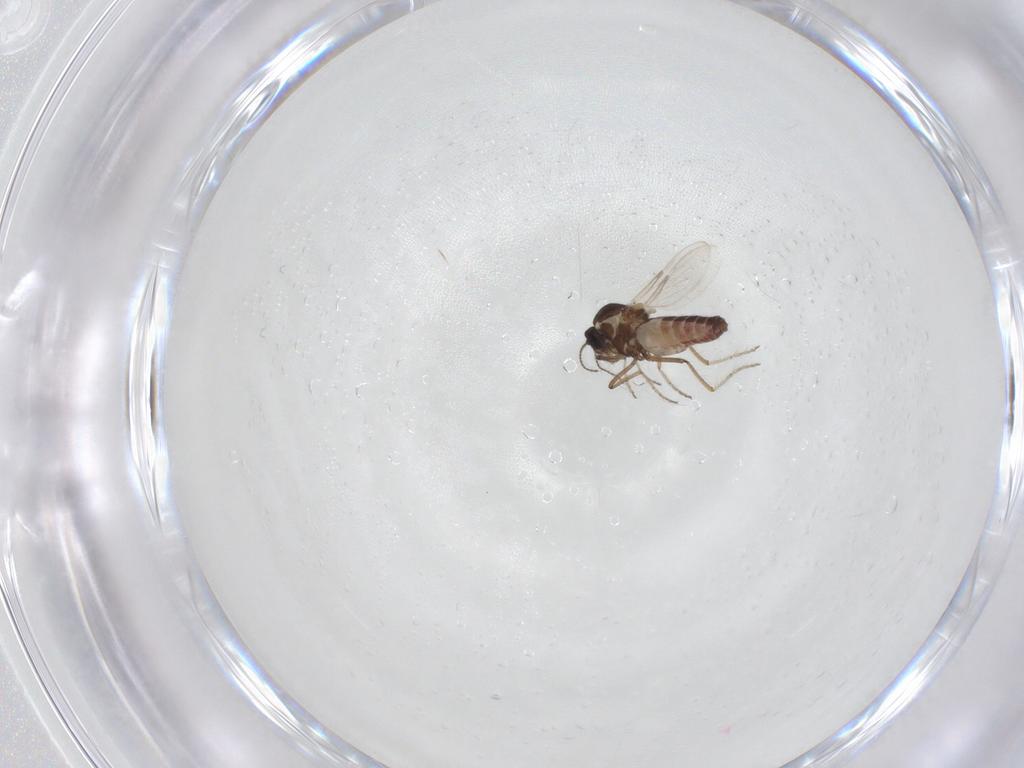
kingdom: Animalia
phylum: Arthropoda
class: Insecta
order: Diptera
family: Ceratopogonidae
